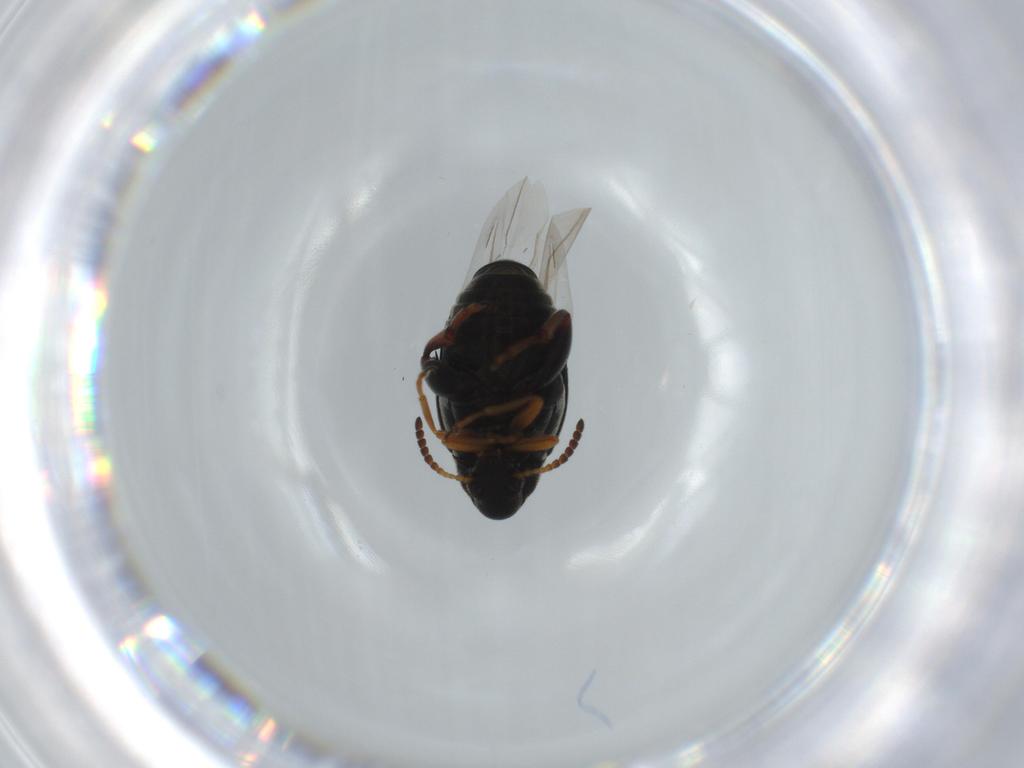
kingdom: Animalia
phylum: Arthropoda
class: Insecta
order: Coleoptera
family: Chrysomelidae
